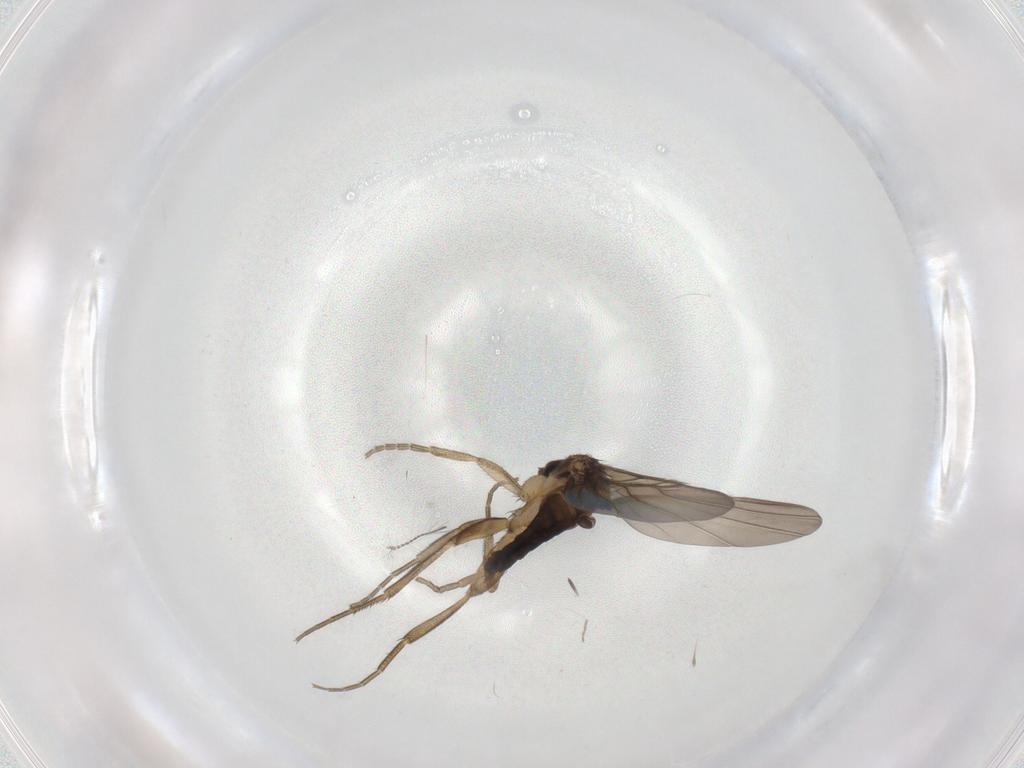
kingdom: Animalia
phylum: Arthropoda
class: Insecta
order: Diptera
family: Phoridae
